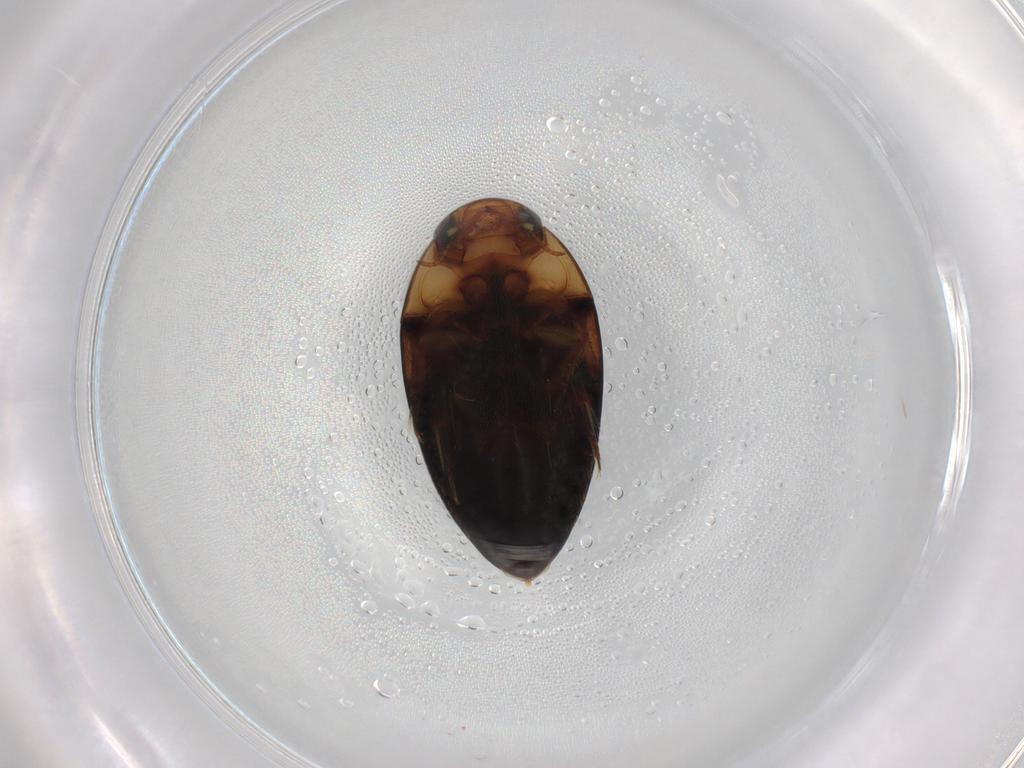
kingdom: Animalia
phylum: Arthropoda
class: Insecta
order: Coleoptera
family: Noteridae
